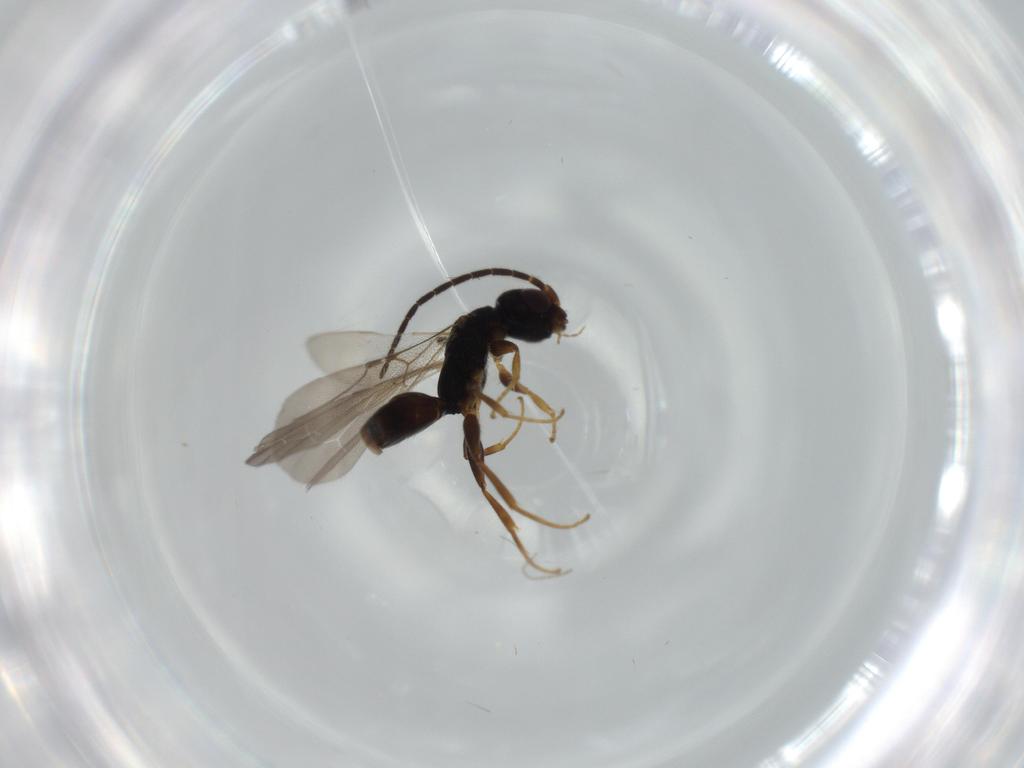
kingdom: Animalia
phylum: Arthropoda
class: Insecta
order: Hymenoptera
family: Bethylidae
